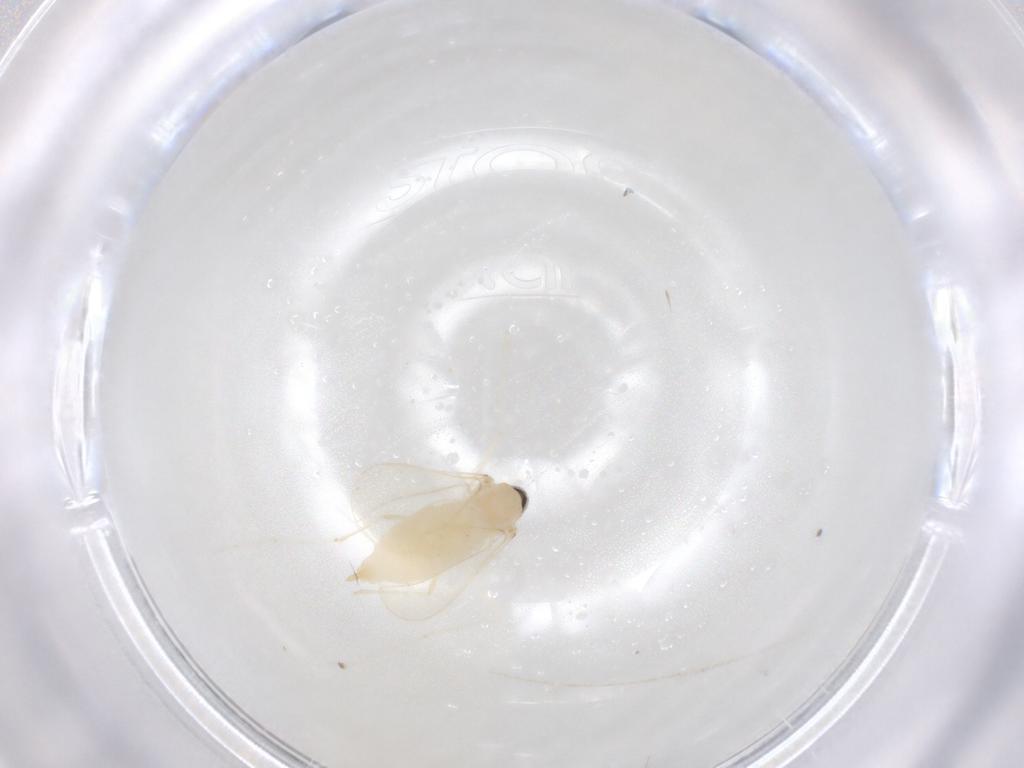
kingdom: Animalia
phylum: Arthropoda
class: Insecta
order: Diptera
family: Cecidomyiidae
